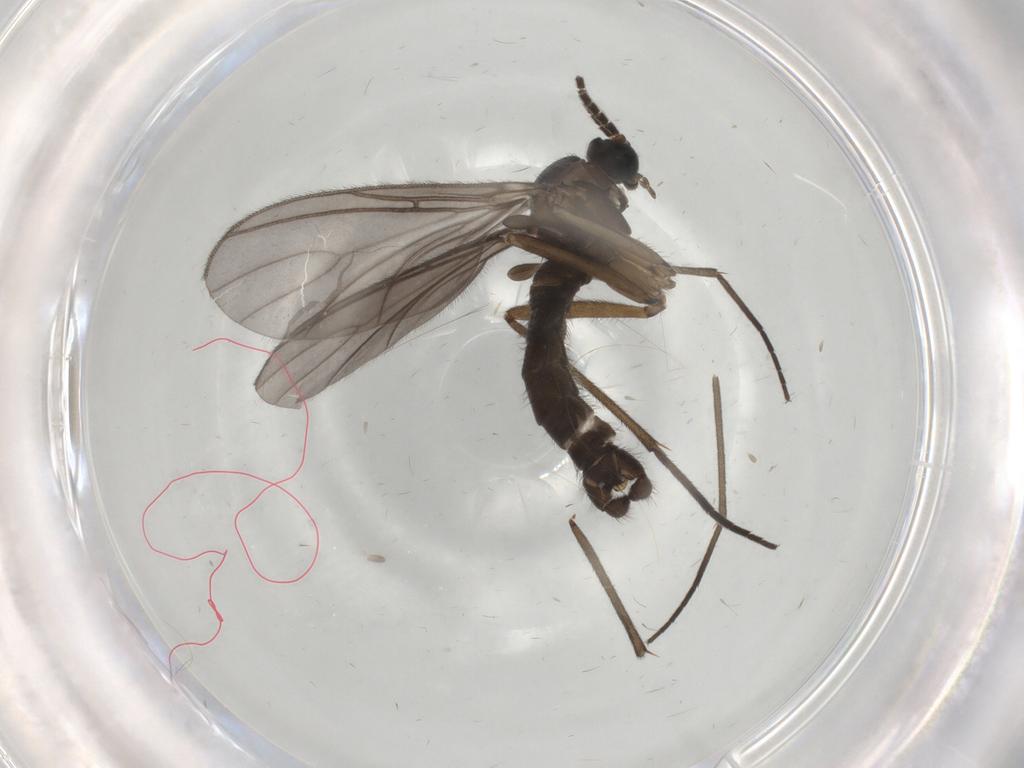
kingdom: Animalia
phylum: Arthropoda
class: Insecta
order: Diptera
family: Sciaridae
